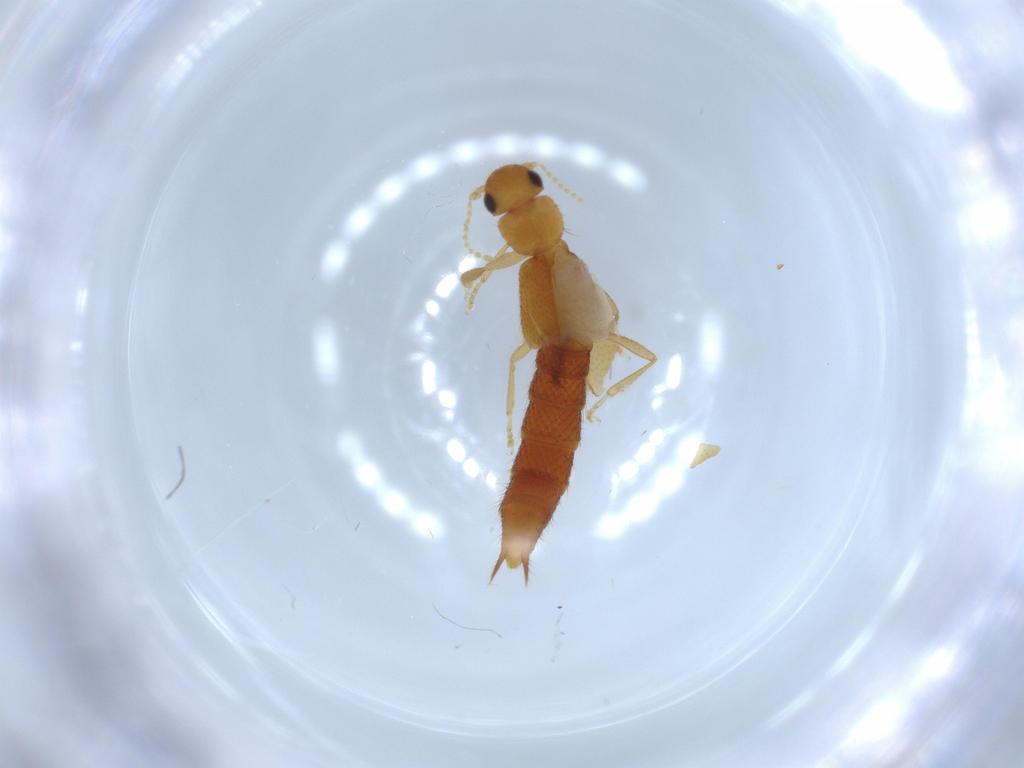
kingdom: Animalia
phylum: Arthropoda
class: Insecta
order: Coleoptera
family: Staphylinidae
